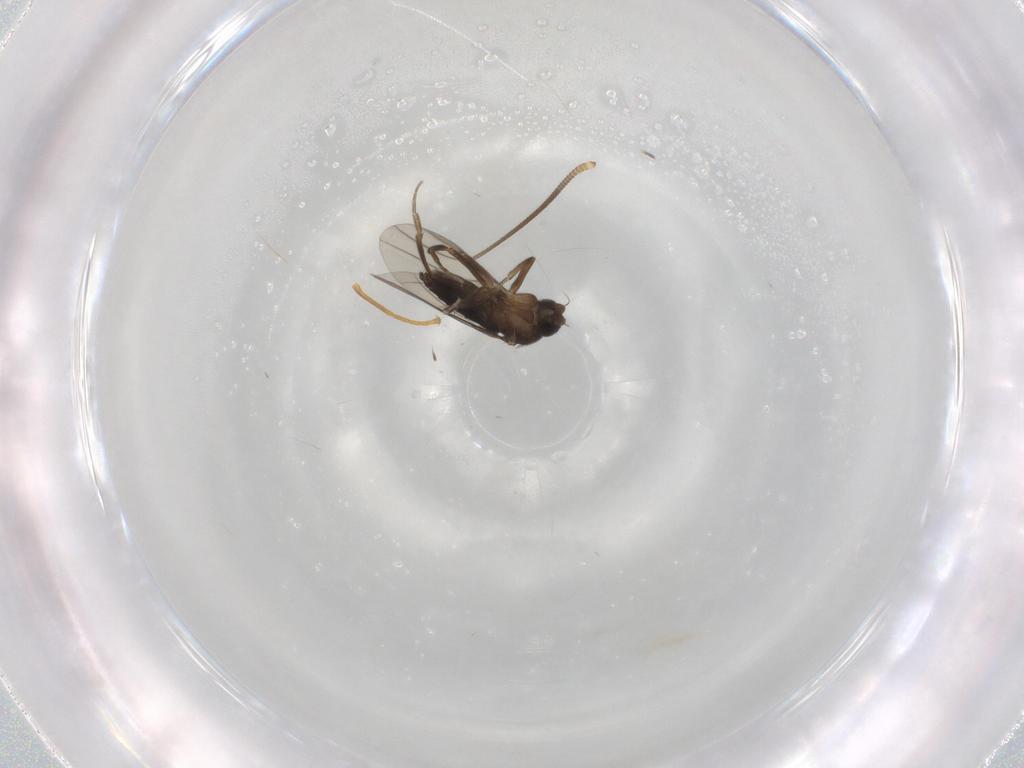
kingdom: Animalia
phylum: Arthropoda
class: Insecta
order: Diptera
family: Chironomidae
